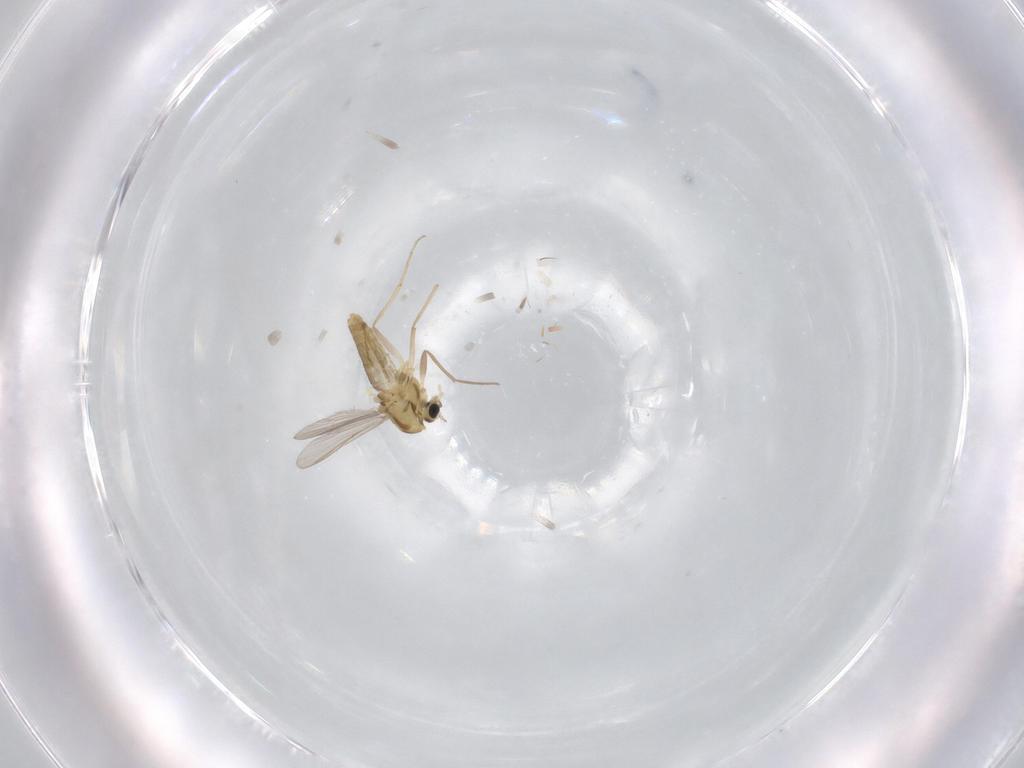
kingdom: Animalia
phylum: Arthropoda
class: Insecta
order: Diptera
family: Chironomidae
